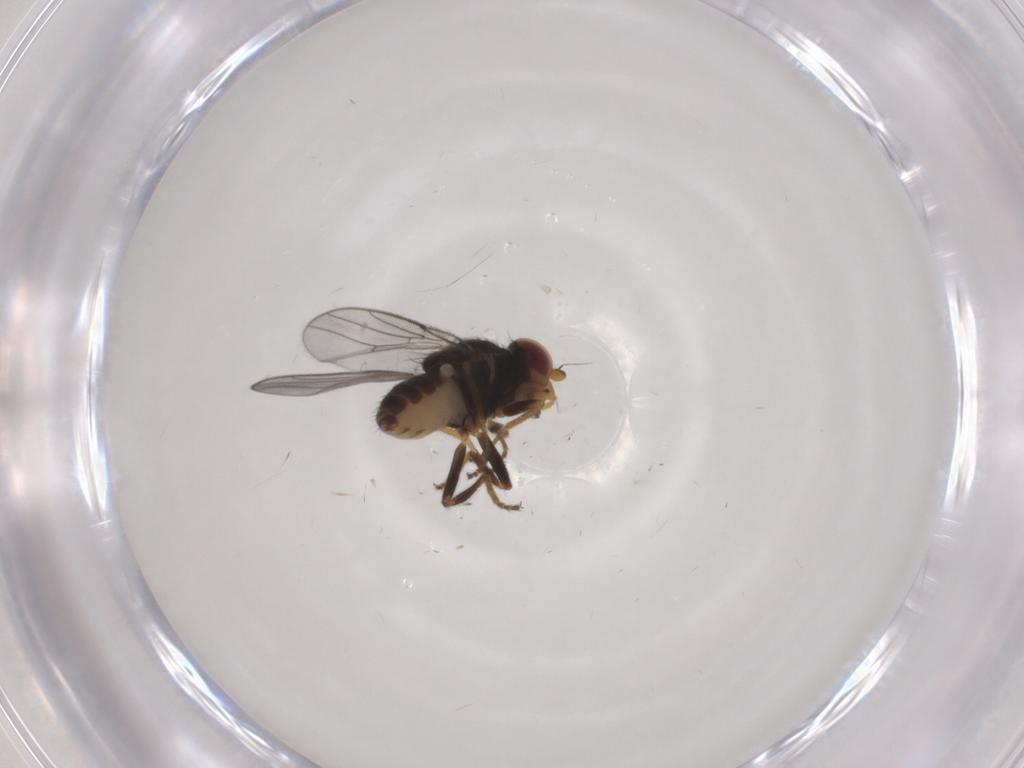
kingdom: Animalia
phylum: Arthropoda
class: Insecta
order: Diptera
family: Chloropidae
